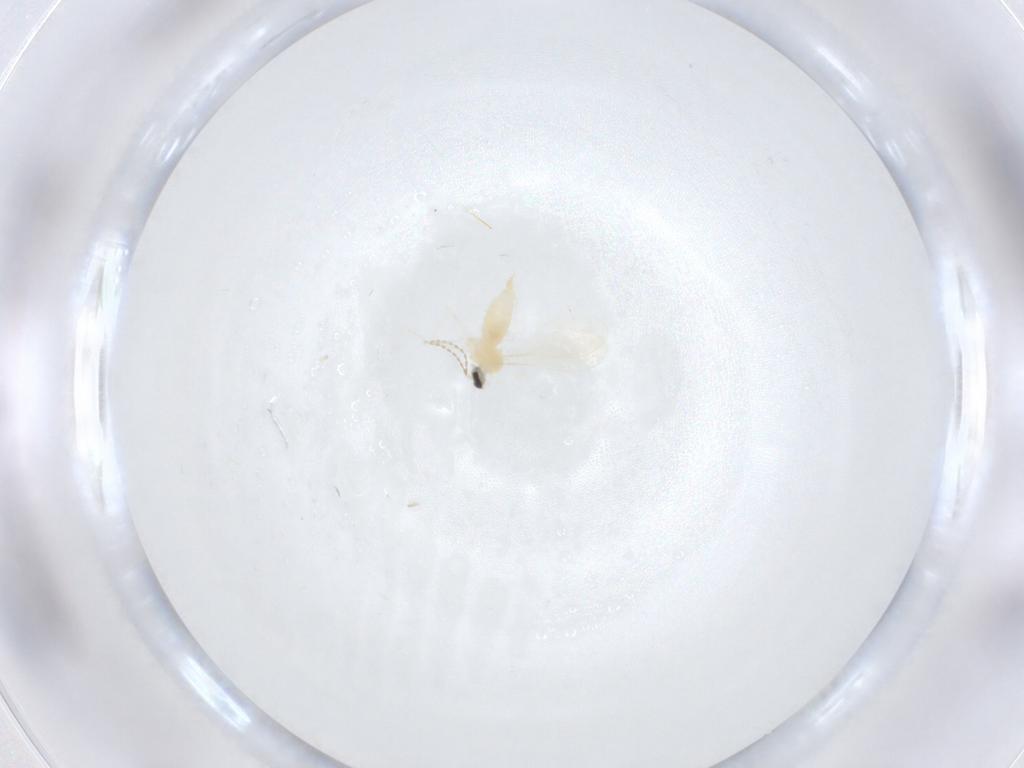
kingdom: Animalia
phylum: Arthropoda
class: Insecta
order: Diptera
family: Cecidomyiidae
